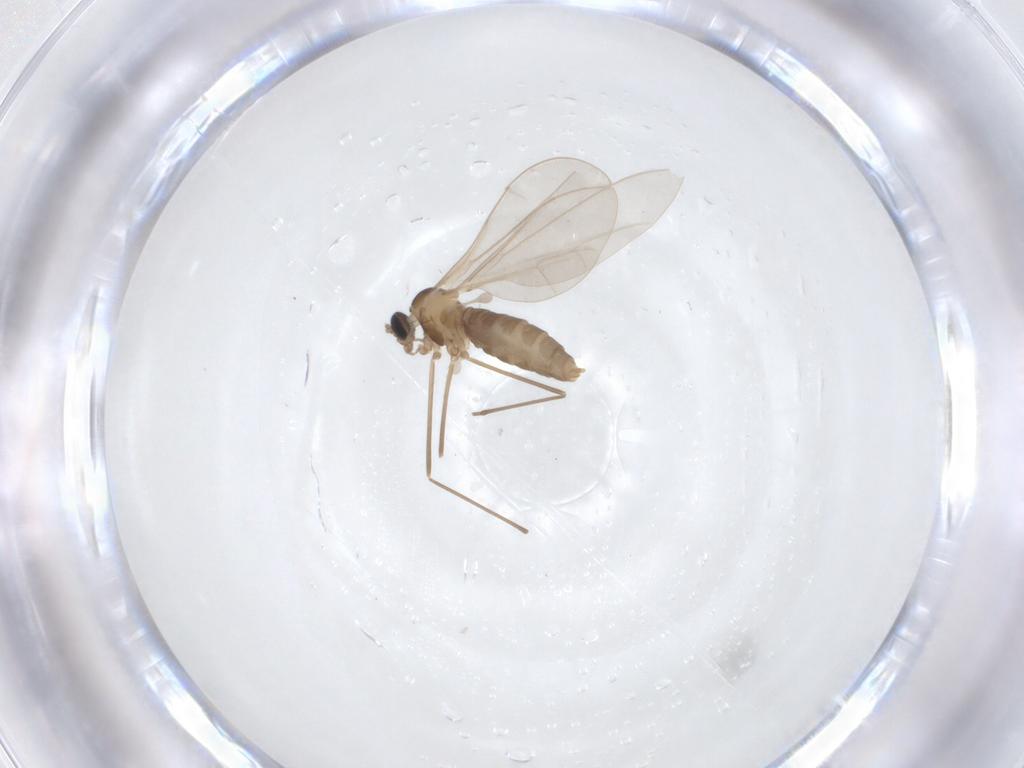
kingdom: Animalia
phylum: Arthropoda
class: Insecta
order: Diptera
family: Cecidomyiidae
